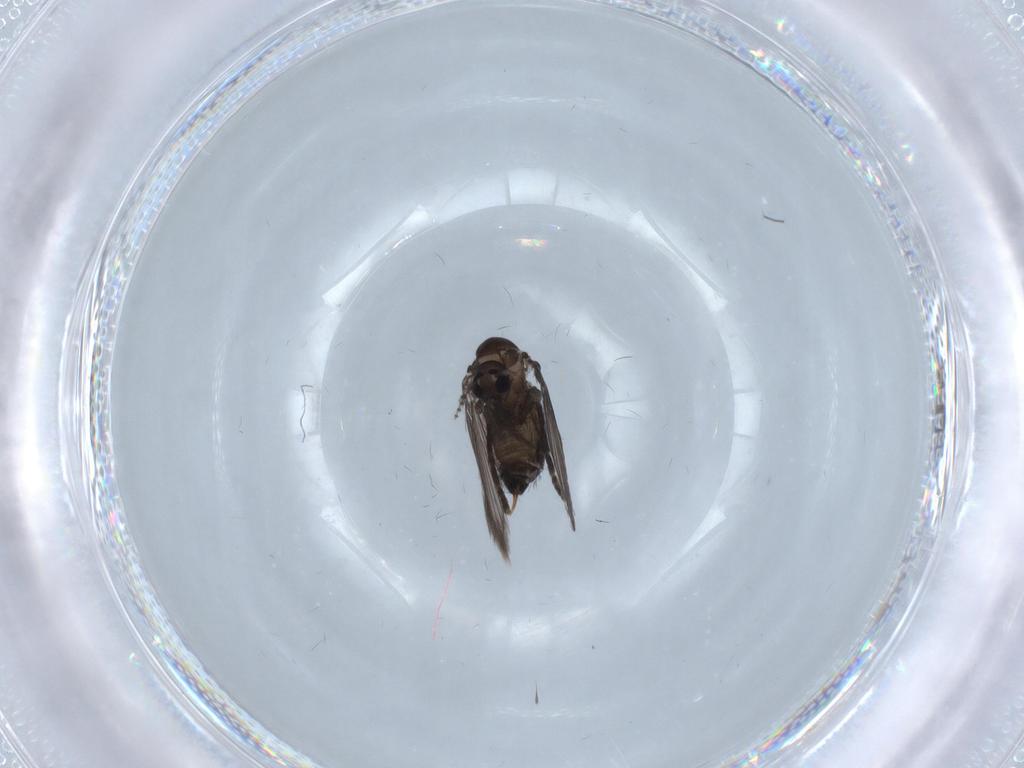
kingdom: Animalia
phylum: Arthropoda
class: Insecta
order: Diptera
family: Psychodidae
